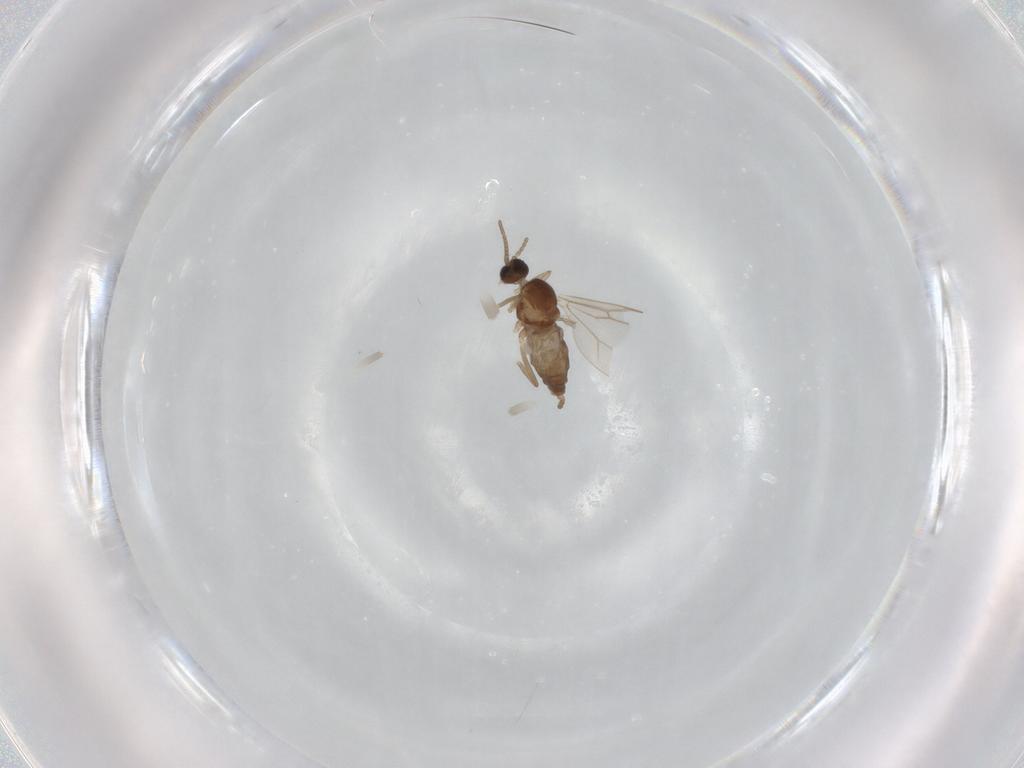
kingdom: Animalia
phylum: Arthropoda
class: Insecta
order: Diptera
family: Cecidomyiidae
